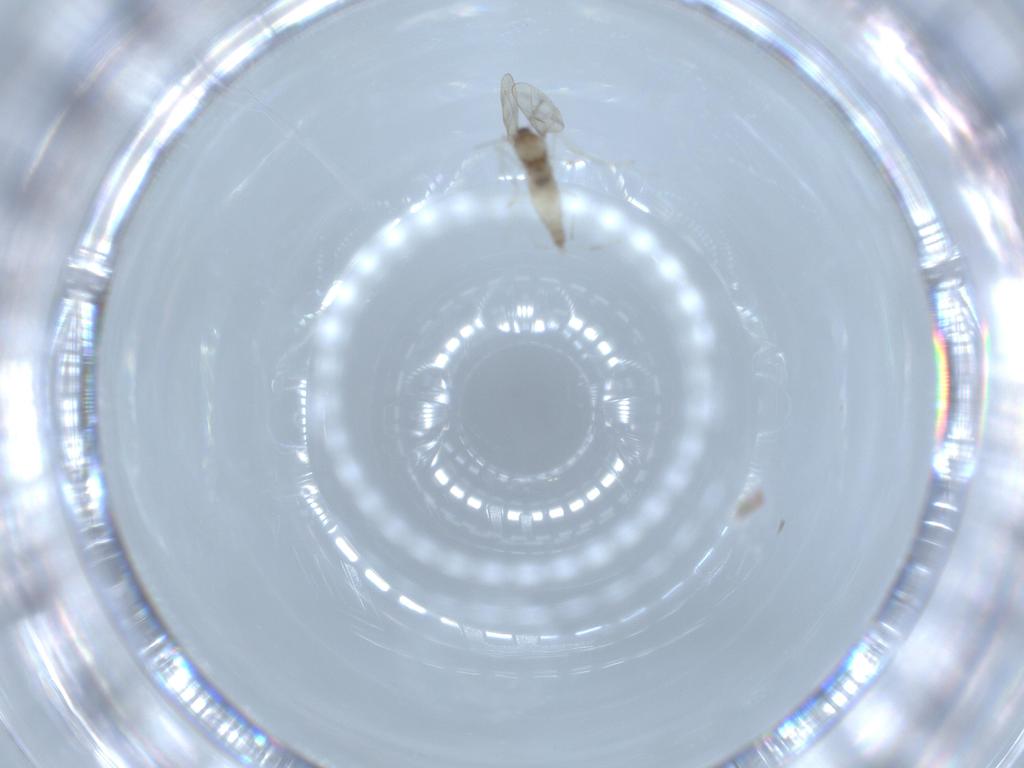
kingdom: Animalia
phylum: Arthropoda
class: Insecta
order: Diptera
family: Cecidomyiidae
